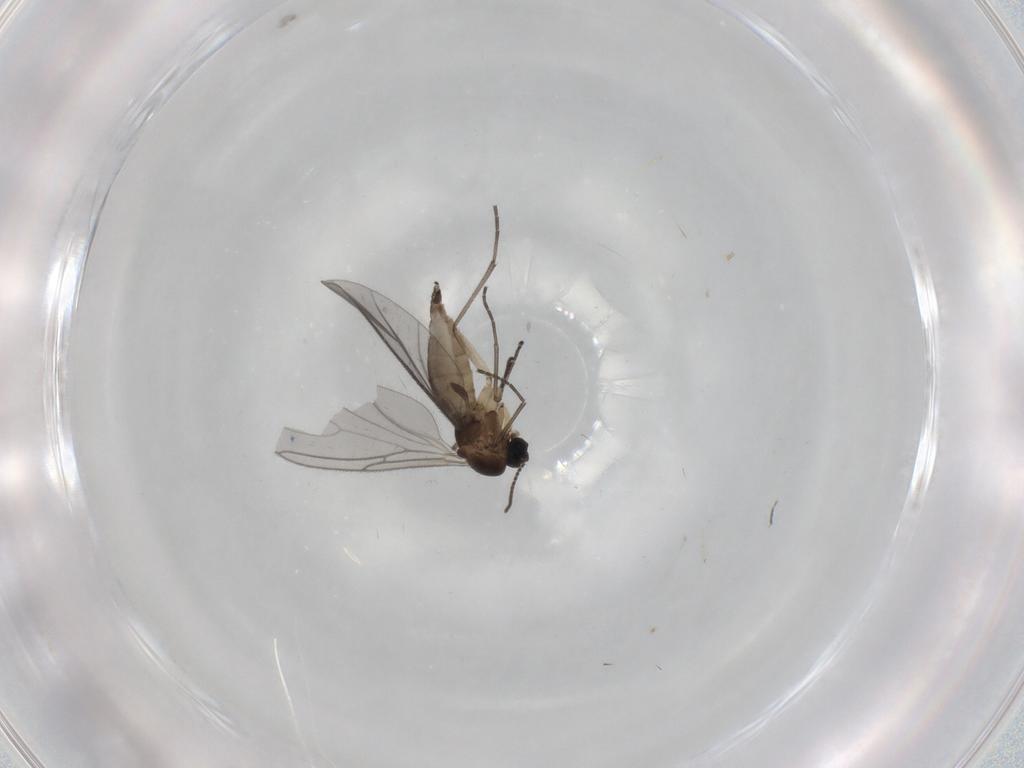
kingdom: Animalia
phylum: Arthropoda
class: Insecta
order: Diptera
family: Sciaridae
